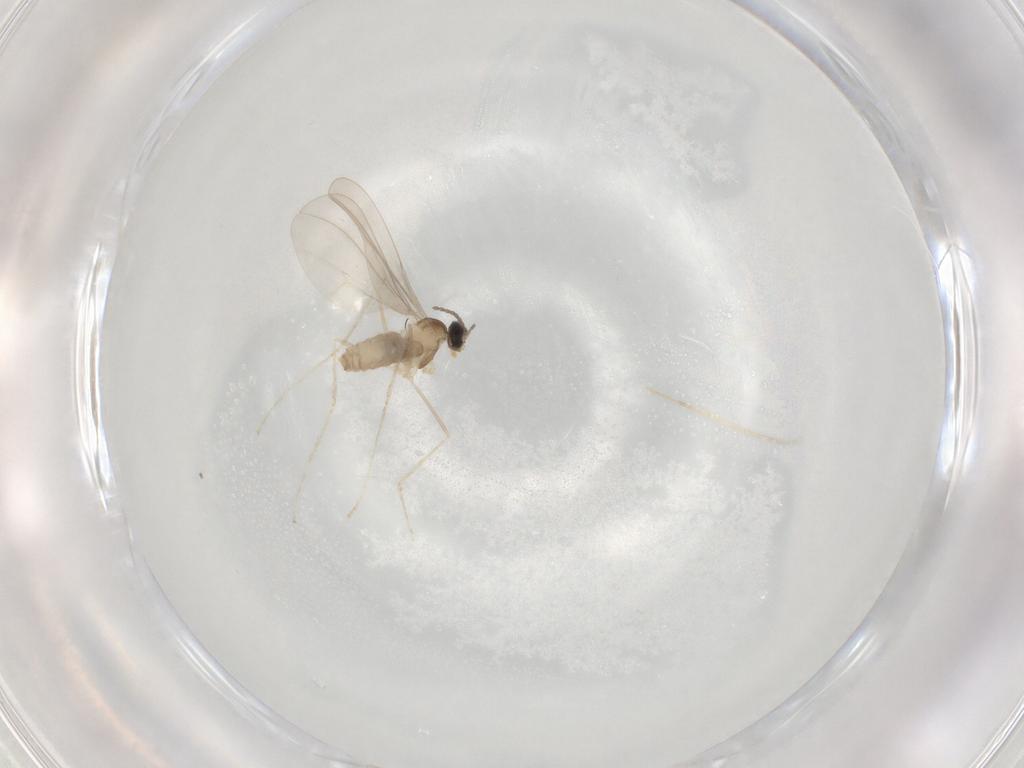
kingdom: Animalia
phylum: Arthropoda
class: Insecta
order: Diptera
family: Cecidomyiidae
